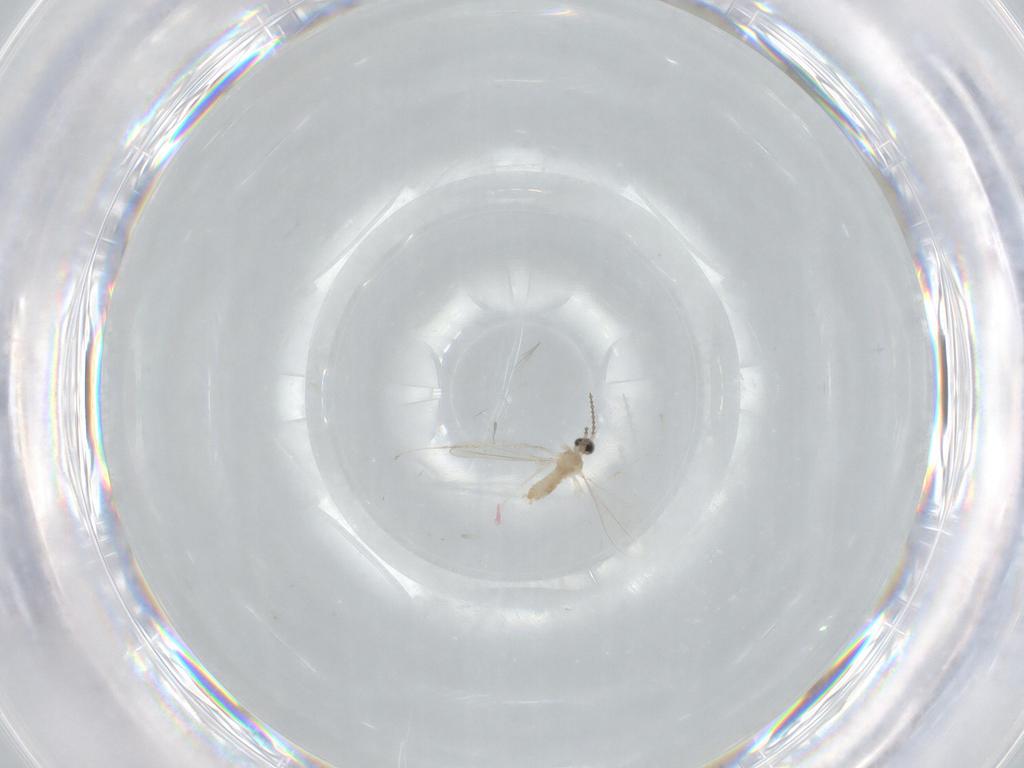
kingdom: Animalia
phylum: Arthropoda
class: Insecta
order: Diptera
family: Cecidomyiidae
